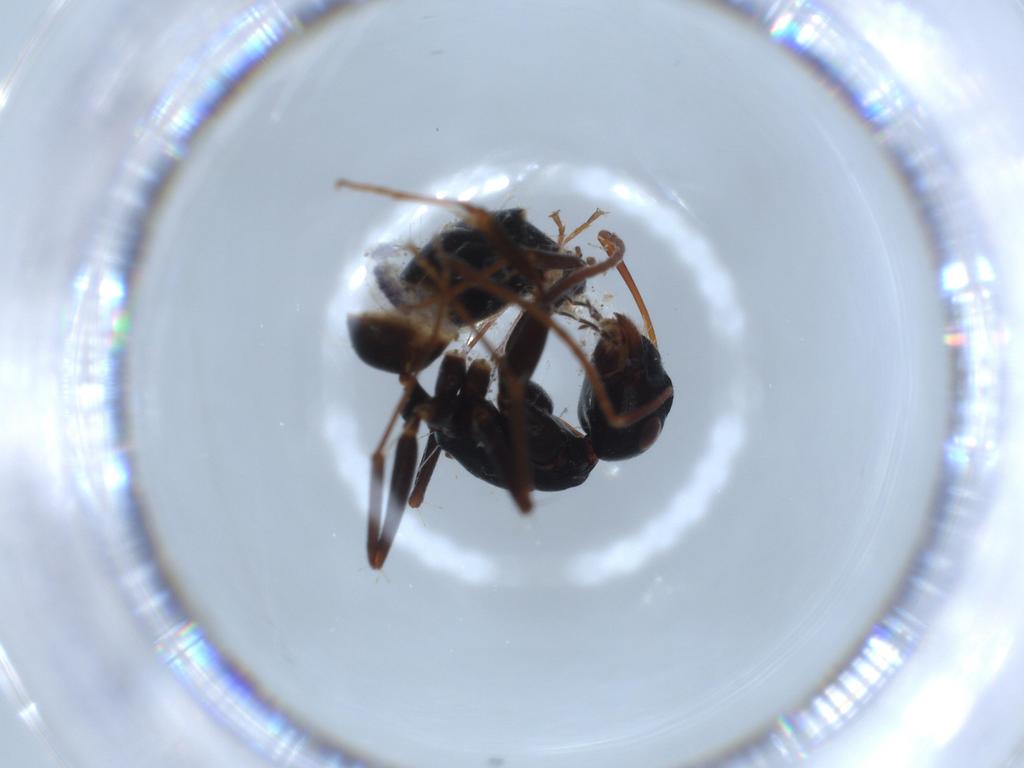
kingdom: Animalia
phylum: Arthropoda
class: Insecta
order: Hymenoptera
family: Formicidae
